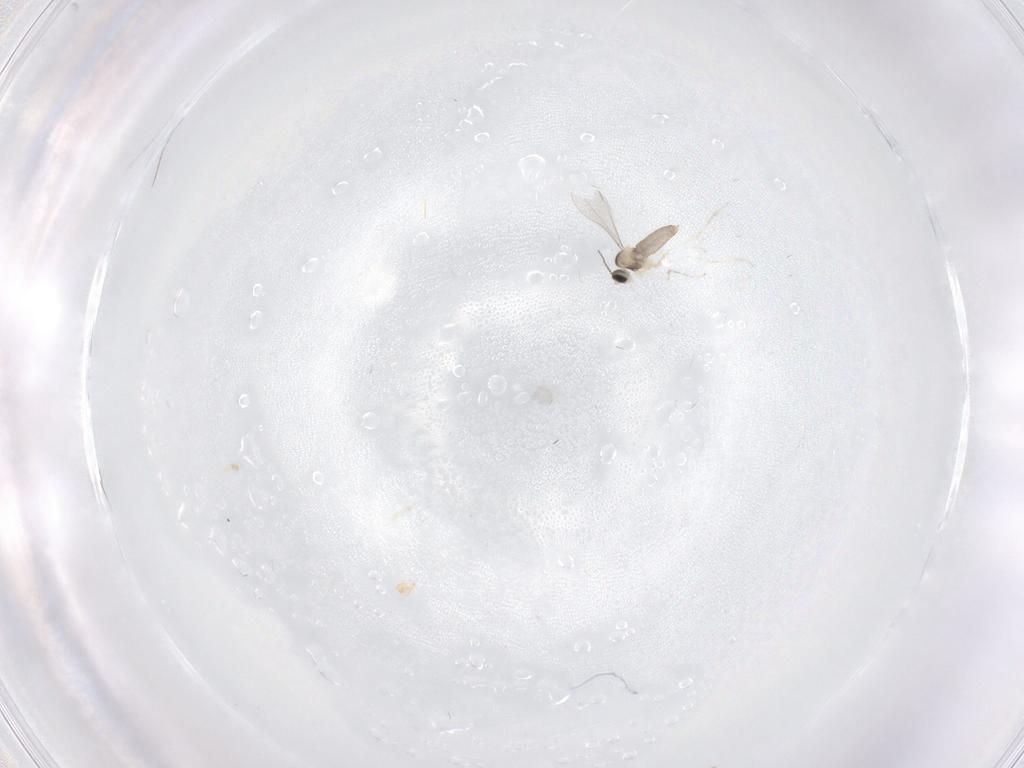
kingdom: Animalia
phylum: Arthropoda
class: Insecta
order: Diptera
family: Cecidomyiidae
